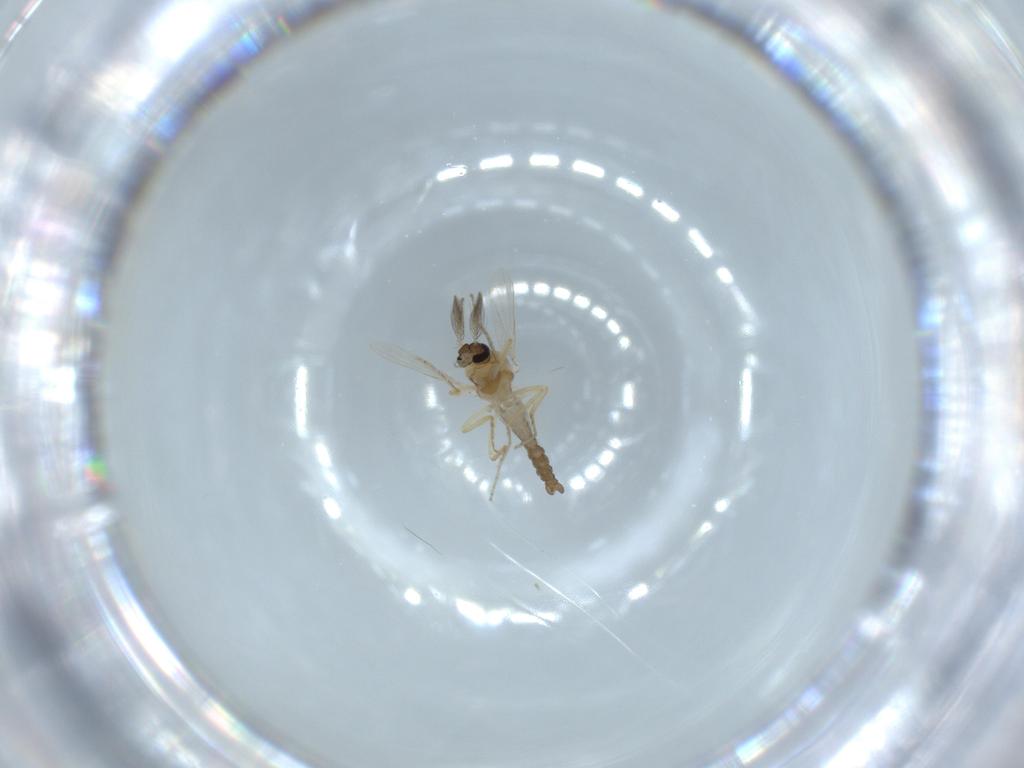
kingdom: Animalia
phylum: Arthropoda
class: Insecta
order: Diptera
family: Ceratopogonidae
